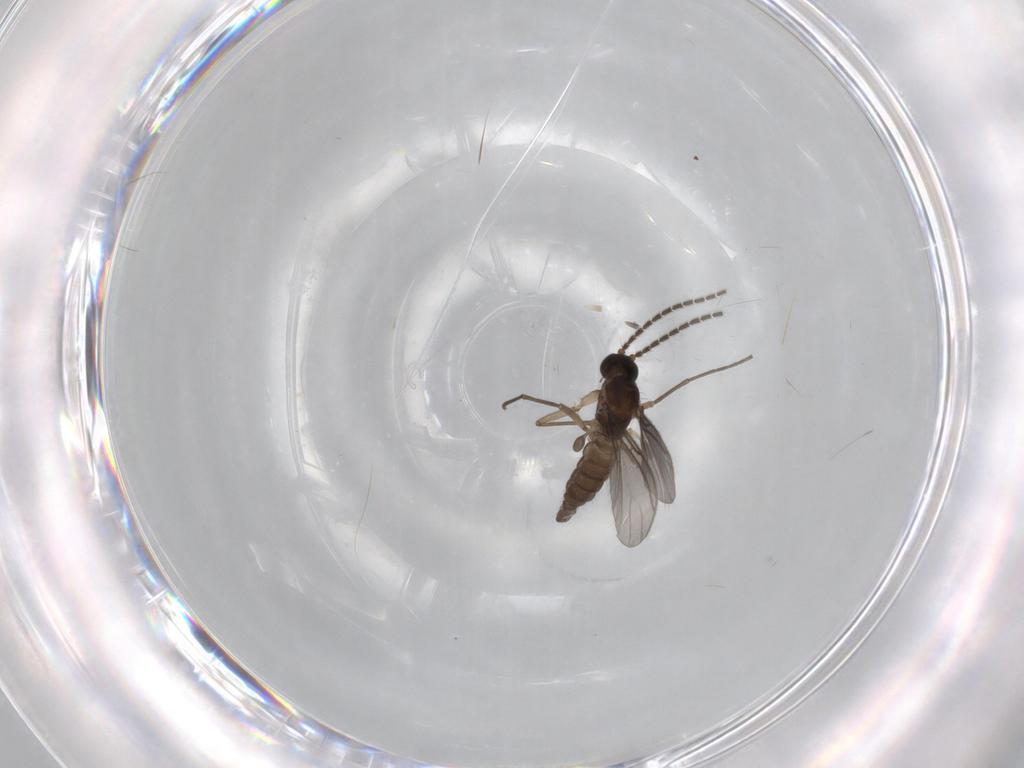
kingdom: Animalia
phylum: Arthropoda
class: Insecta
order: Diptera
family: Sciaridae
